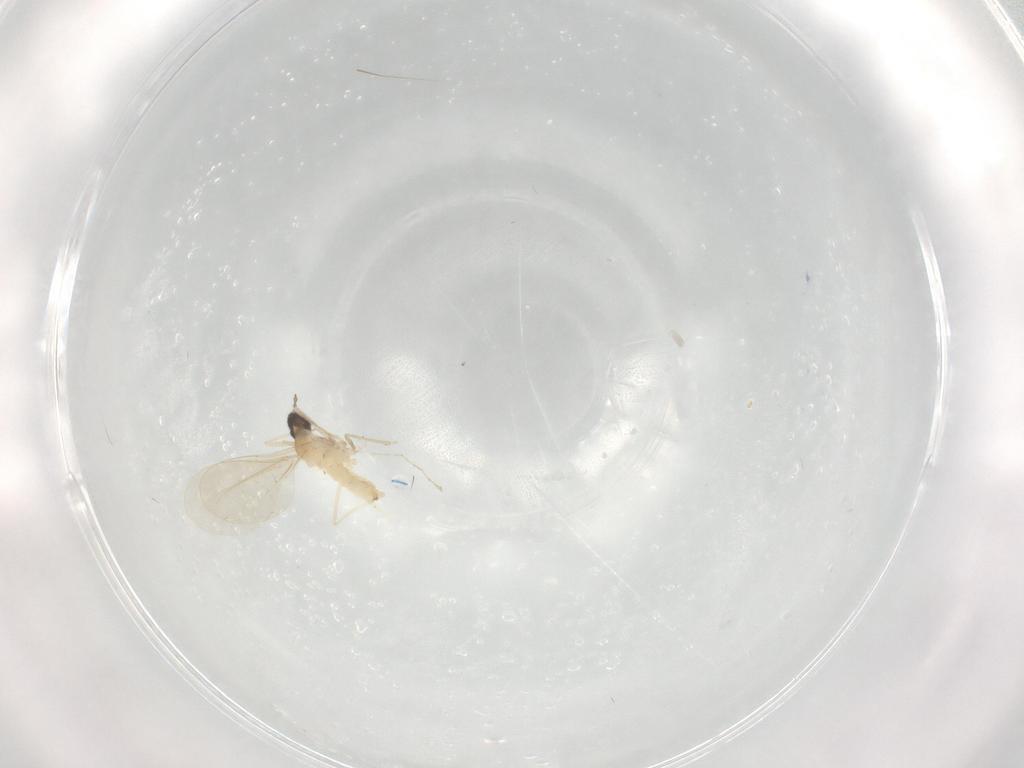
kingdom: Animalia
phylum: Arthropoda
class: Insecta
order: Diptera
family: Cecidomyiidae
